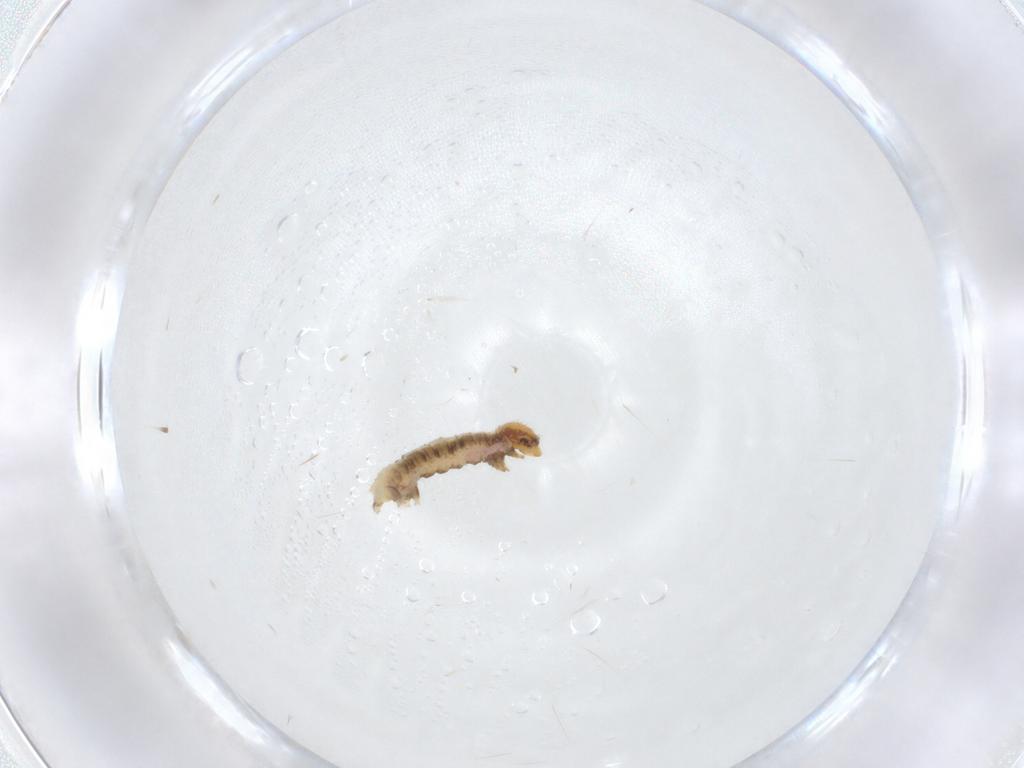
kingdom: Animalia
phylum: Arthropoda
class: Insecta
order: Lepidoptera
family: Geometridae
